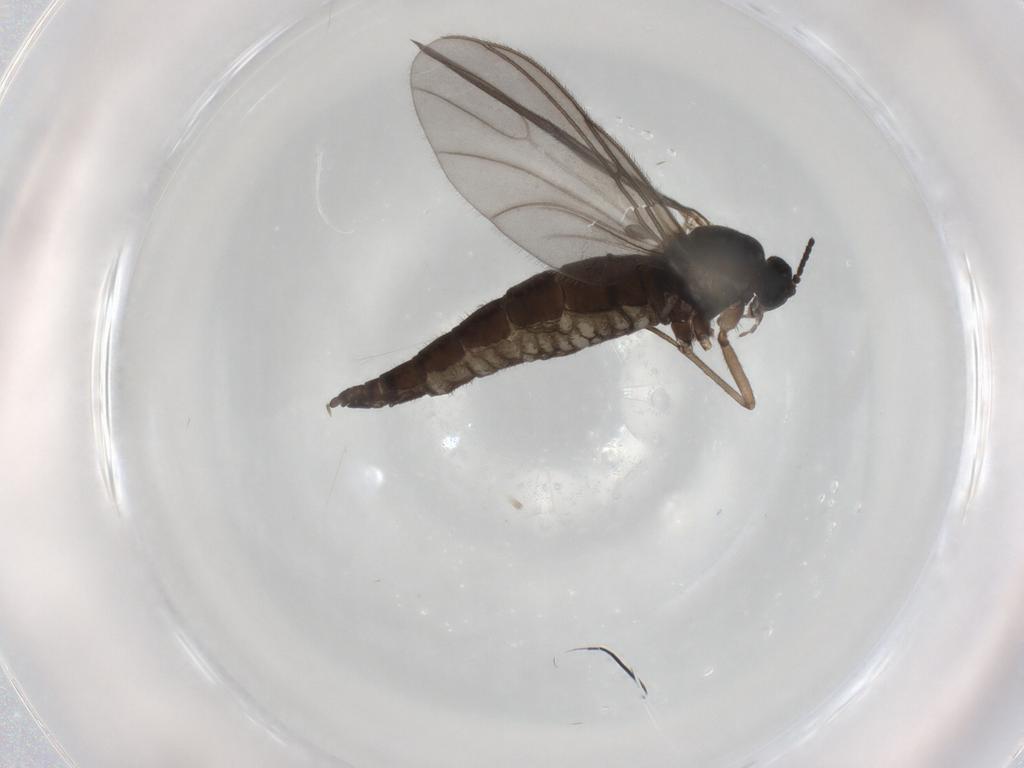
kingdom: Animalia
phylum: Arthropoda
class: Insecta
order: Diptera
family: Sciaridae
